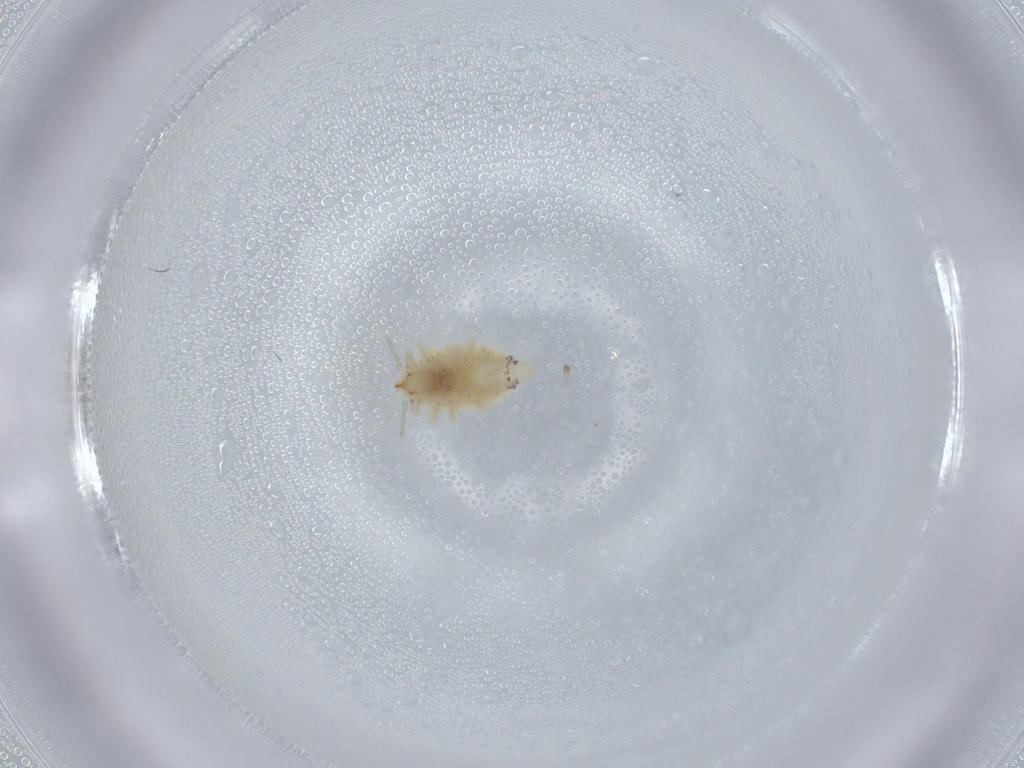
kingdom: Animalia
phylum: Arthropoda
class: Insecta
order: Neuroptera
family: Coniopterygidae
